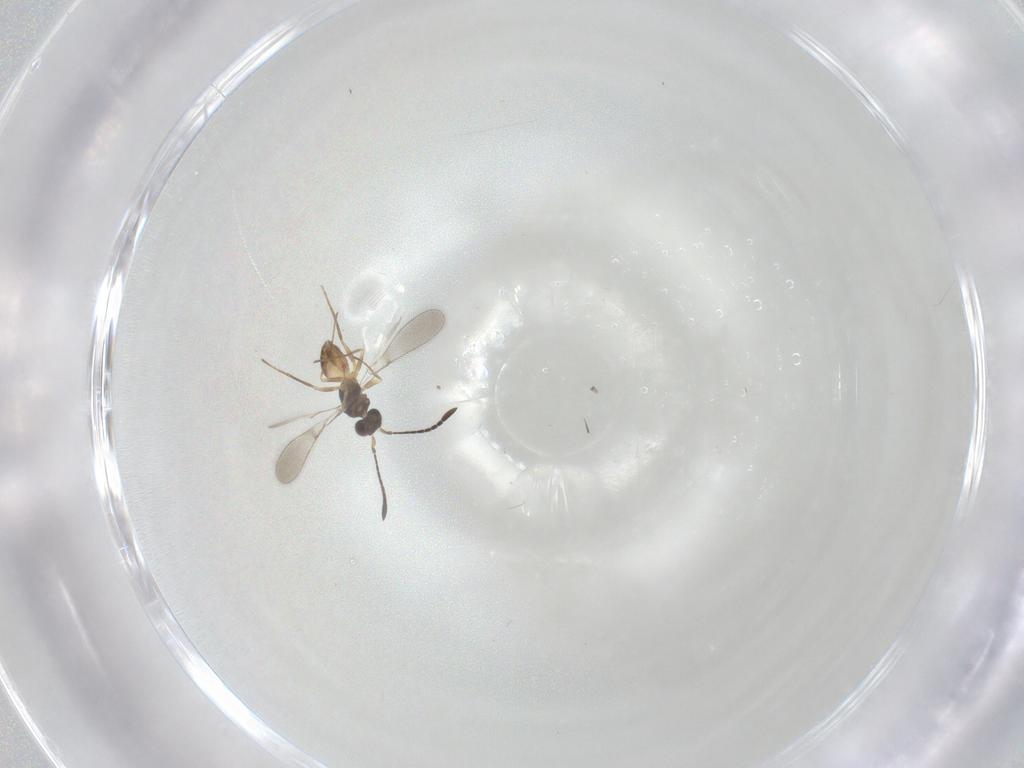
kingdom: Animalia
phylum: Arthropoda
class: Insecta
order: Hymenoptera
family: Mymaridae
